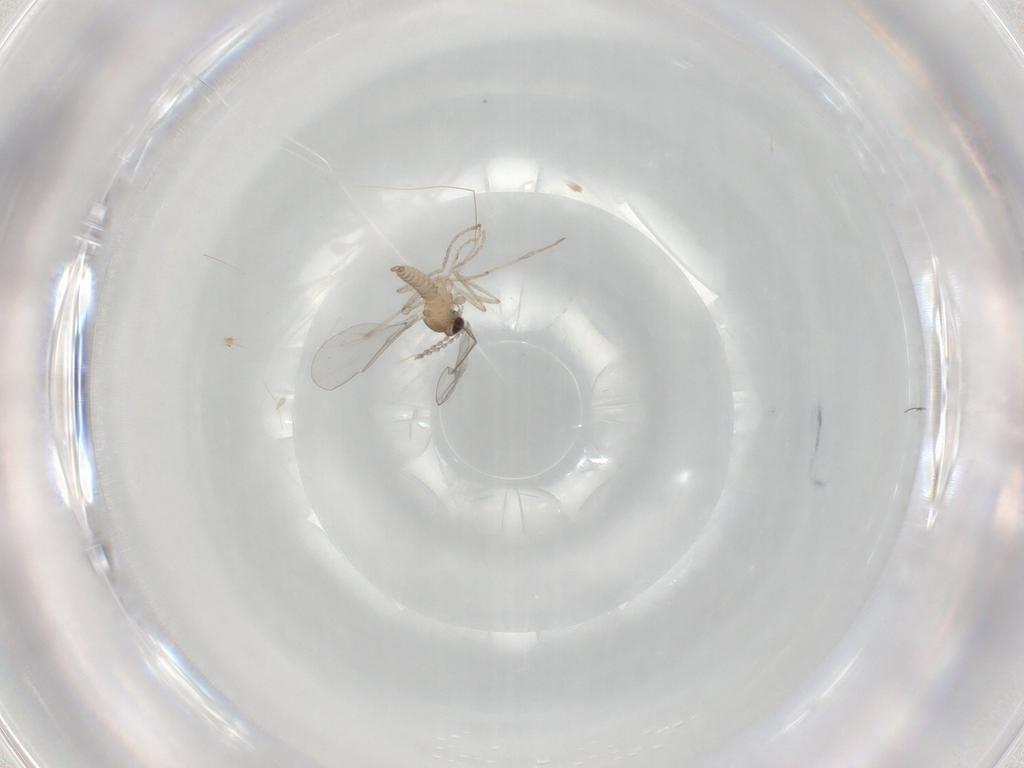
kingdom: Animalia
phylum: Arthropoda
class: Insecta
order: Diptera
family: Sciaridae
